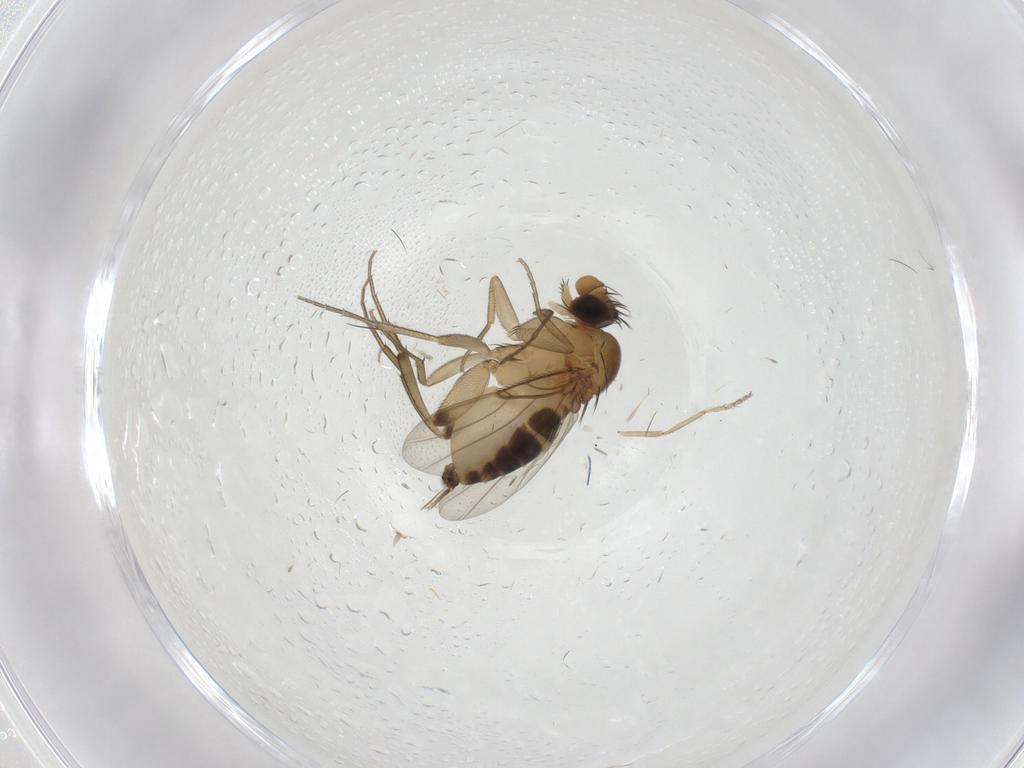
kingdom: Animalia
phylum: Arthropoda
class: Insecta
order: Diptera
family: Phoridae
